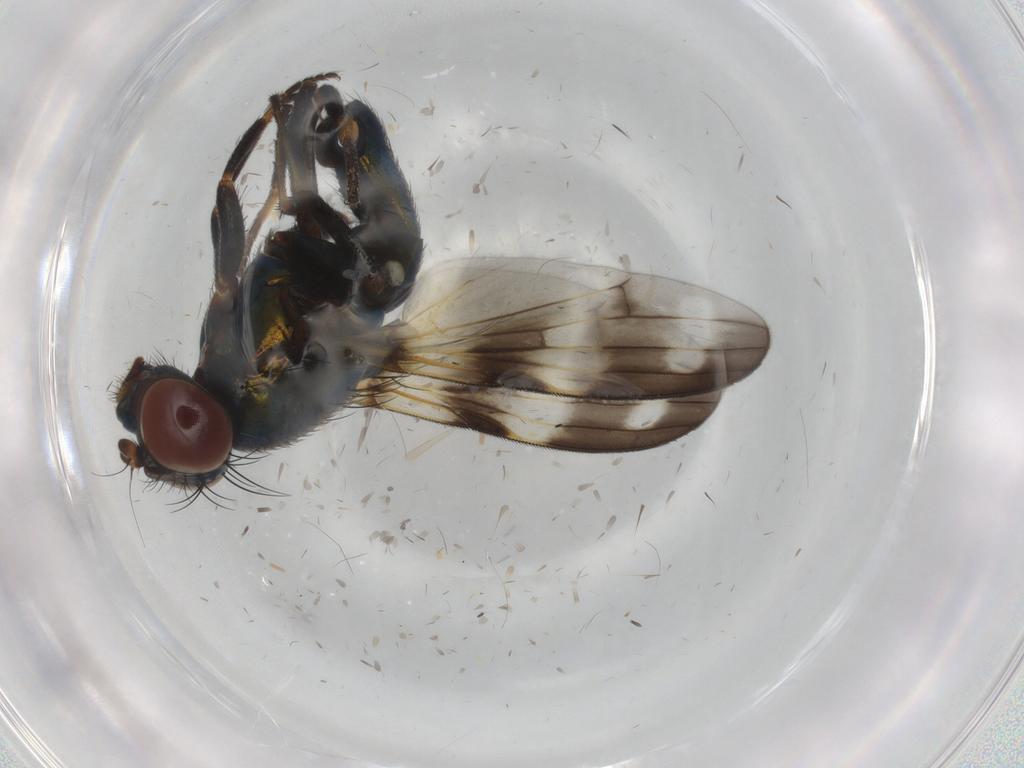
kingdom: Animalia
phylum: Arthropoda
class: Insecta
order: Diptera
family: Ulidiidae
